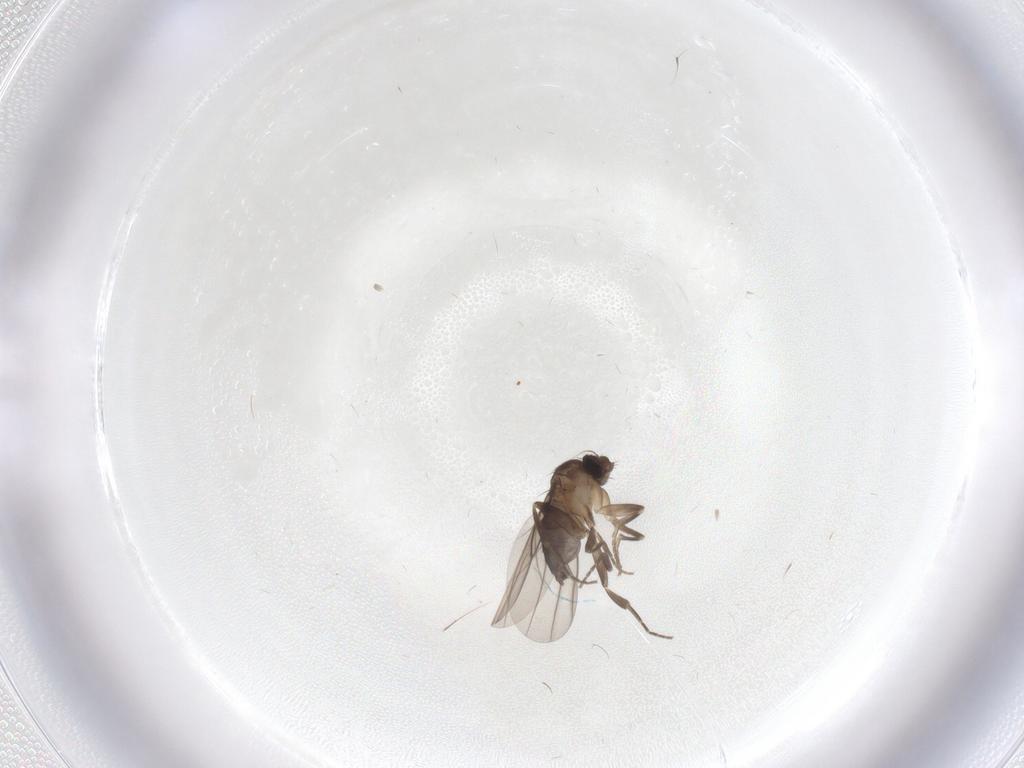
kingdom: Animalia
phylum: Arthropoda
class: Insecta
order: Diptera
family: Phoridae
